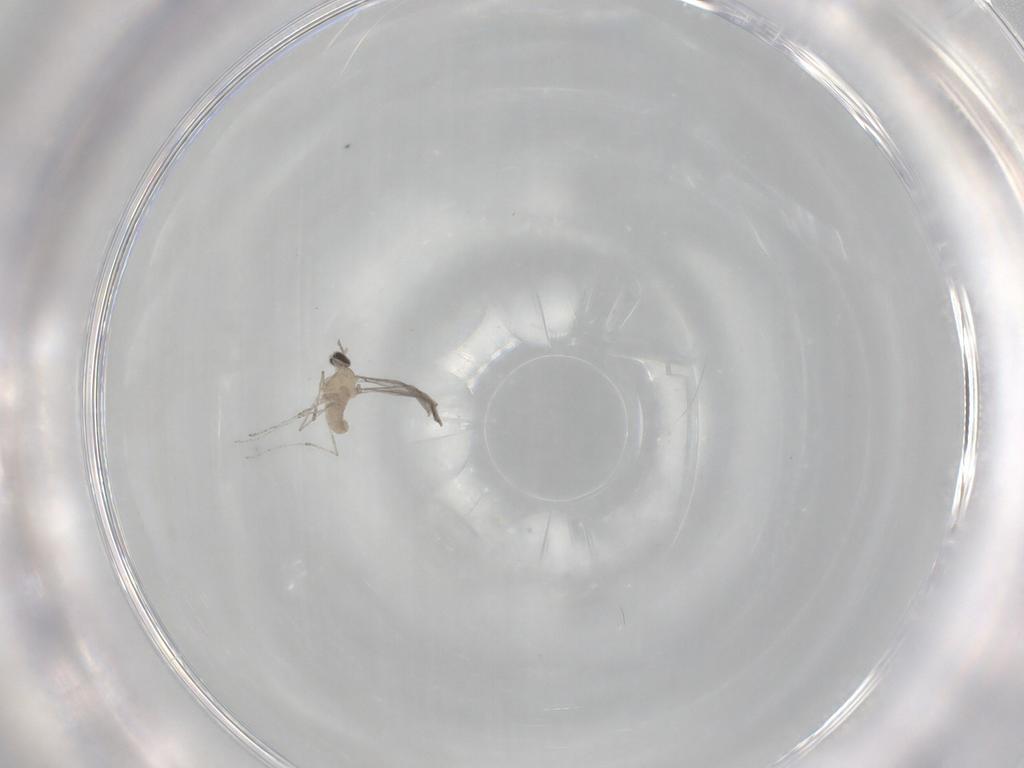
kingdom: Animalia
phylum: Arthropoda
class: Insecta
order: Diptera
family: Cecidomyiidae
